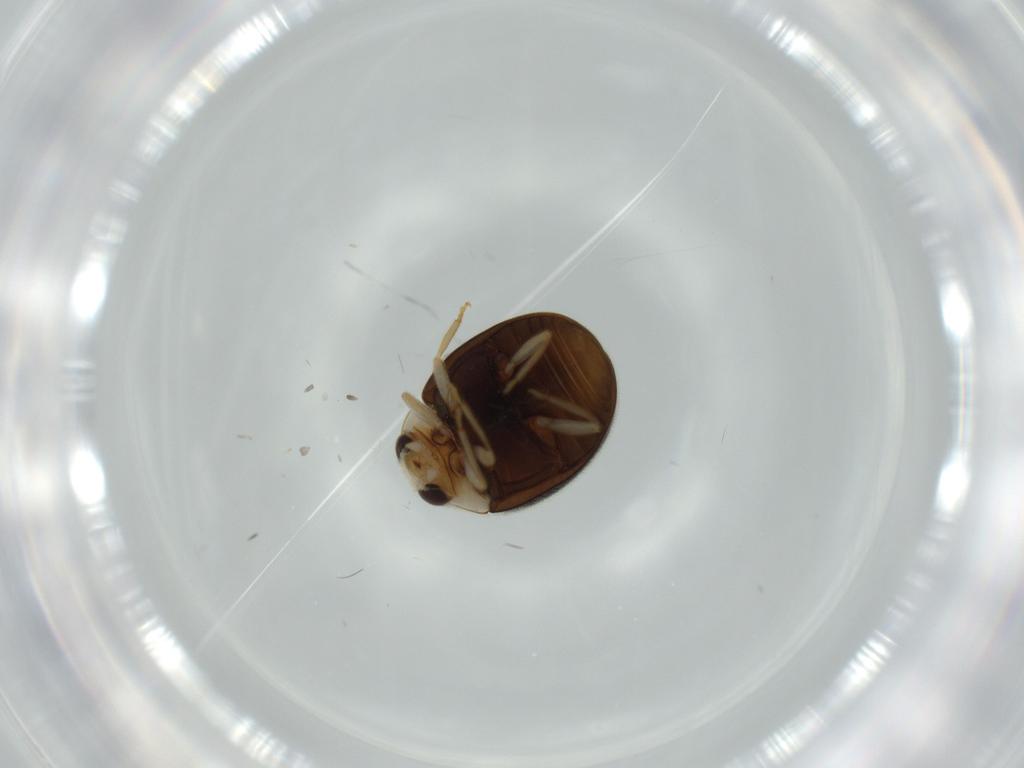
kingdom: Animalia
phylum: Arthropoda
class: Insecta
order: Coleoptera
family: Coccinellidae
